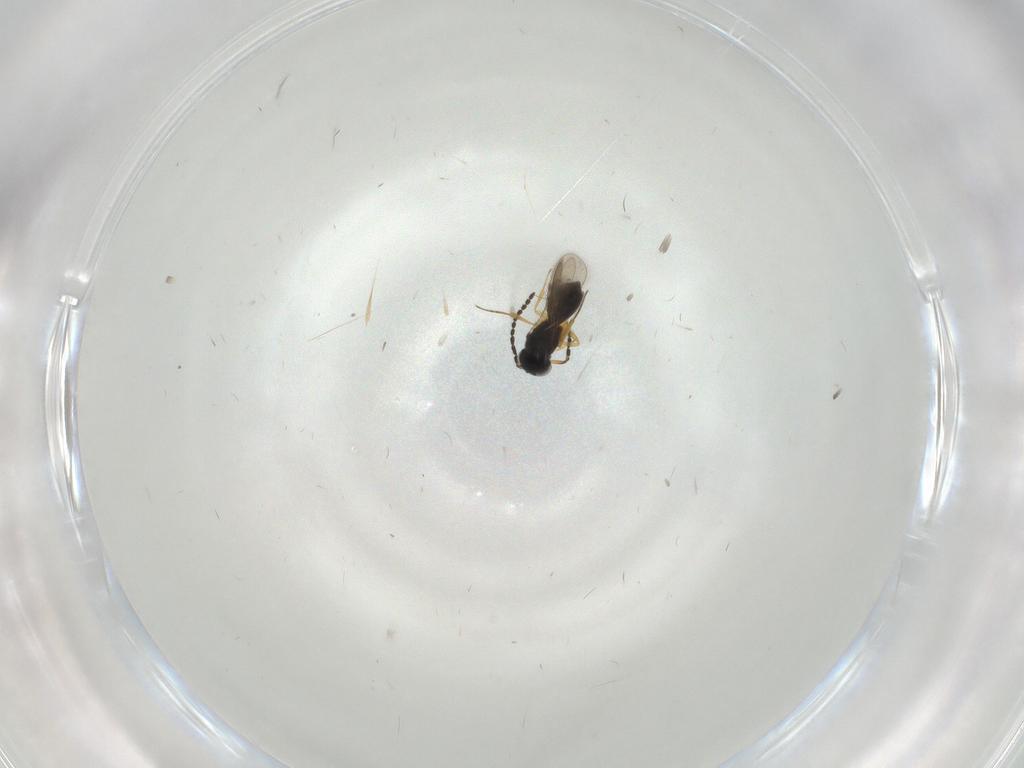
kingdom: Animalia
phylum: Arthropoda
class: Insecta
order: Hymenoptera
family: Scelionidae
